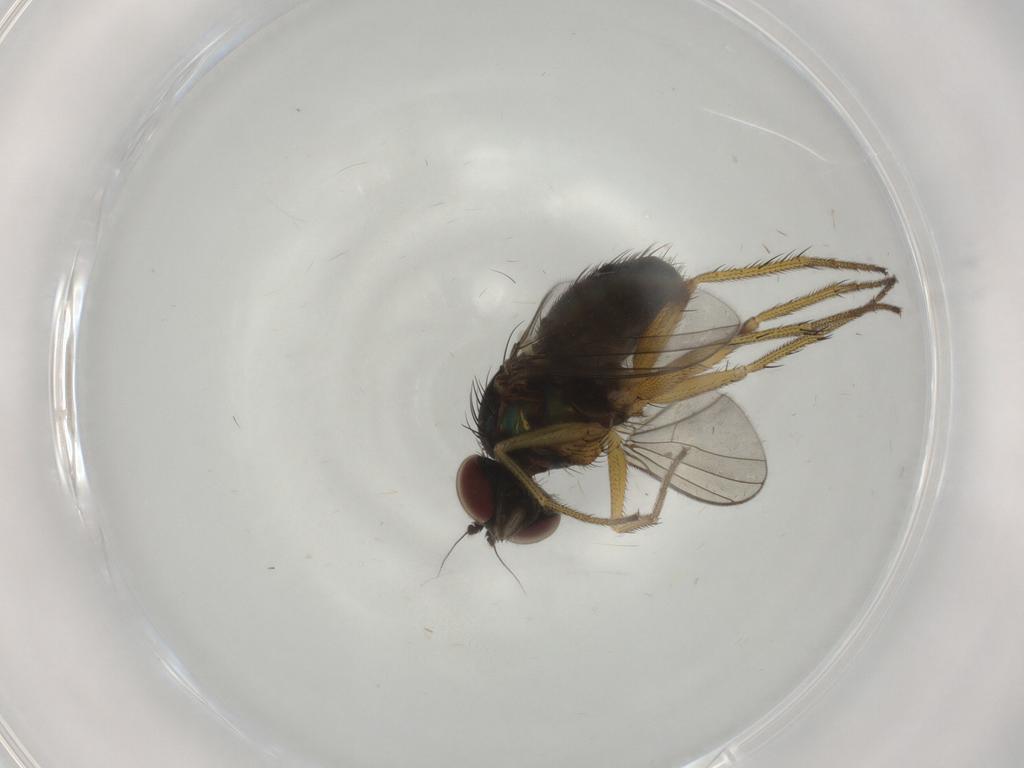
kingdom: Animalia
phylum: Arthropoda
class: Insecta
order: Diptera
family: Dolichopodidae
